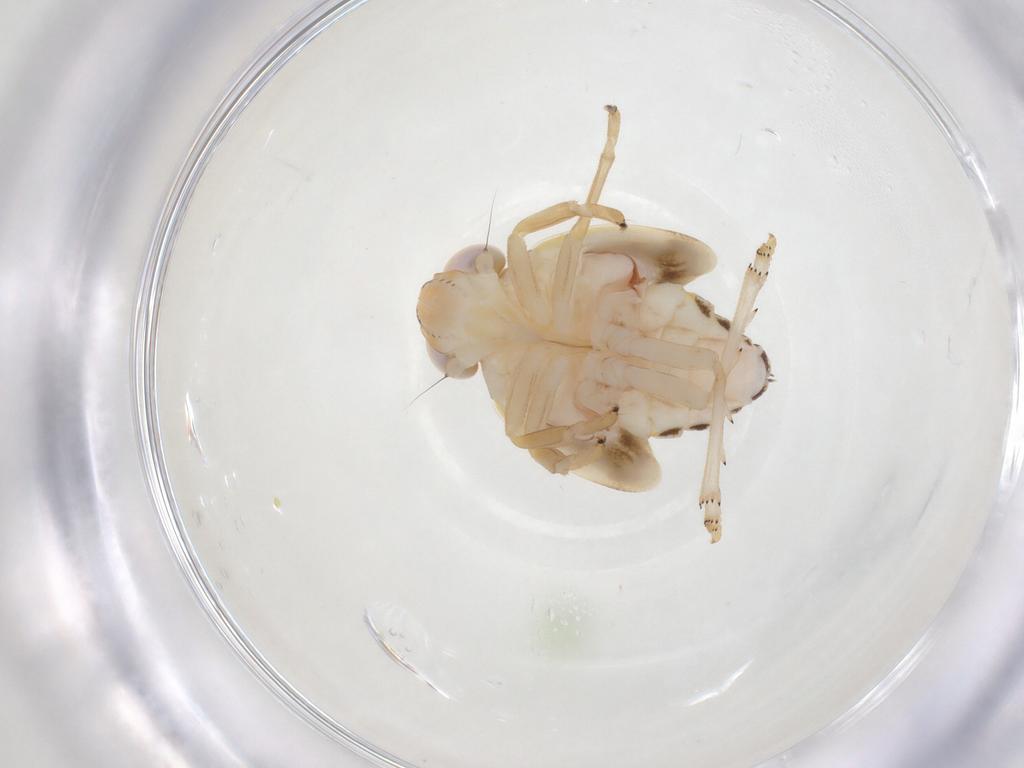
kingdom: Animalia
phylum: Arthropoda
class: Insecta
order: Hemiptera
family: Nogodinidae
